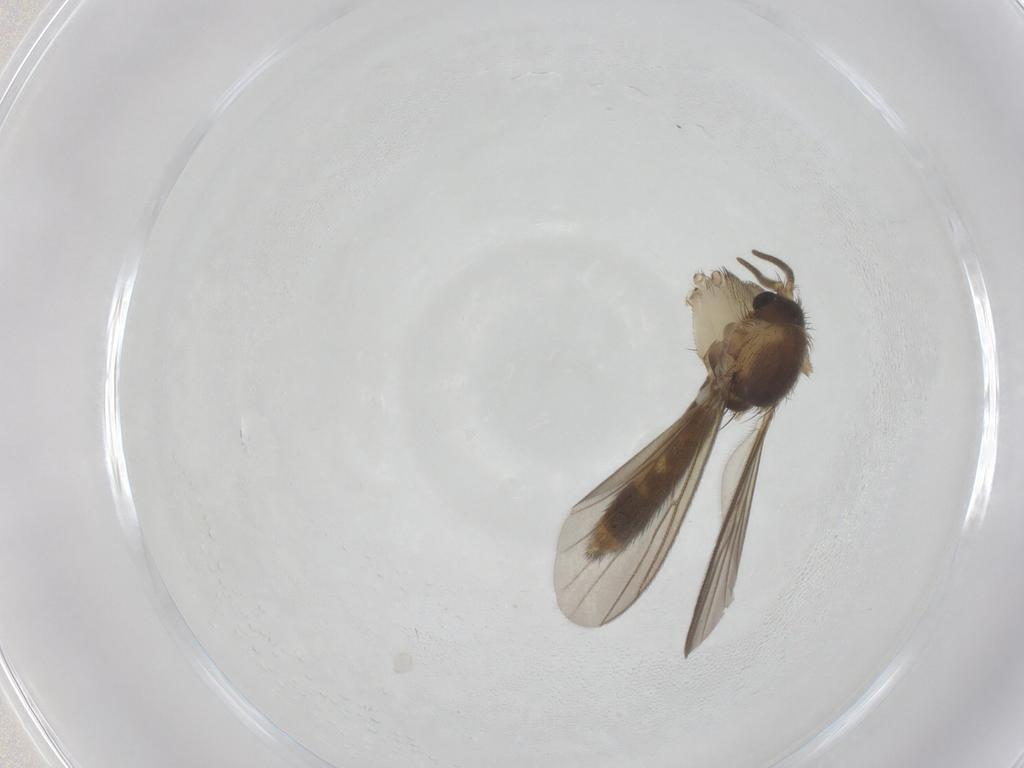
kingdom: Animalia
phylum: Arthropoda
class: Insecta
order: Diptera
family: Mycetophilidae
